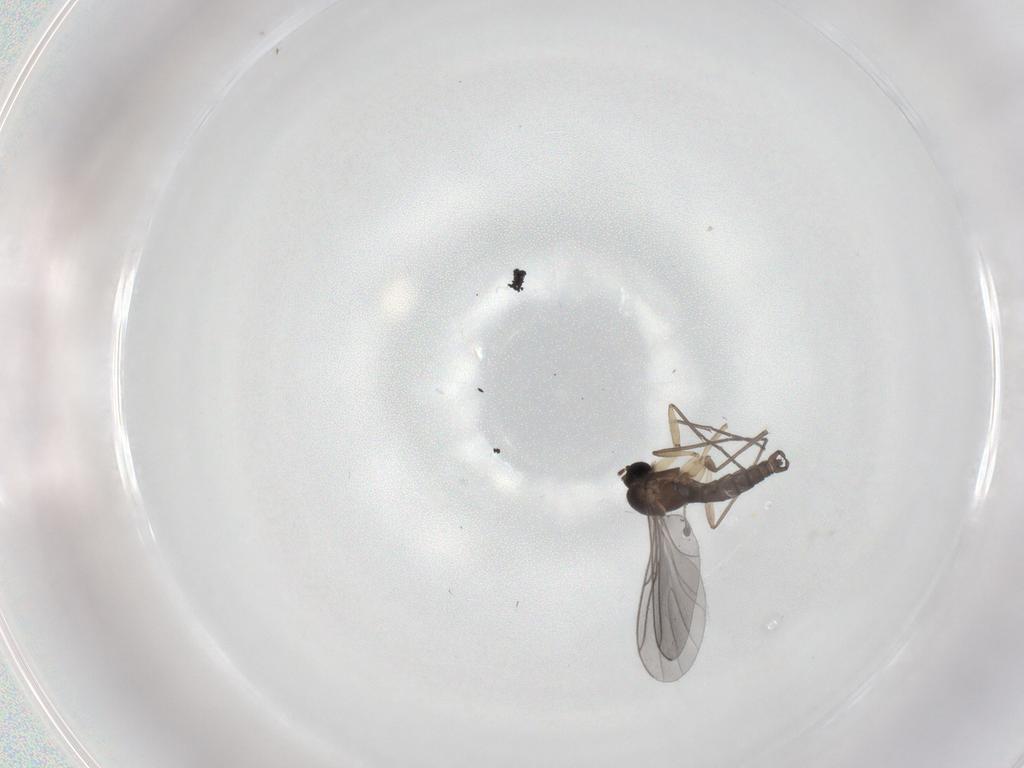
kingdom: Animalia
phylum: Arthropoda
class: Insecta
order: Diptera
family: Sciaridae
